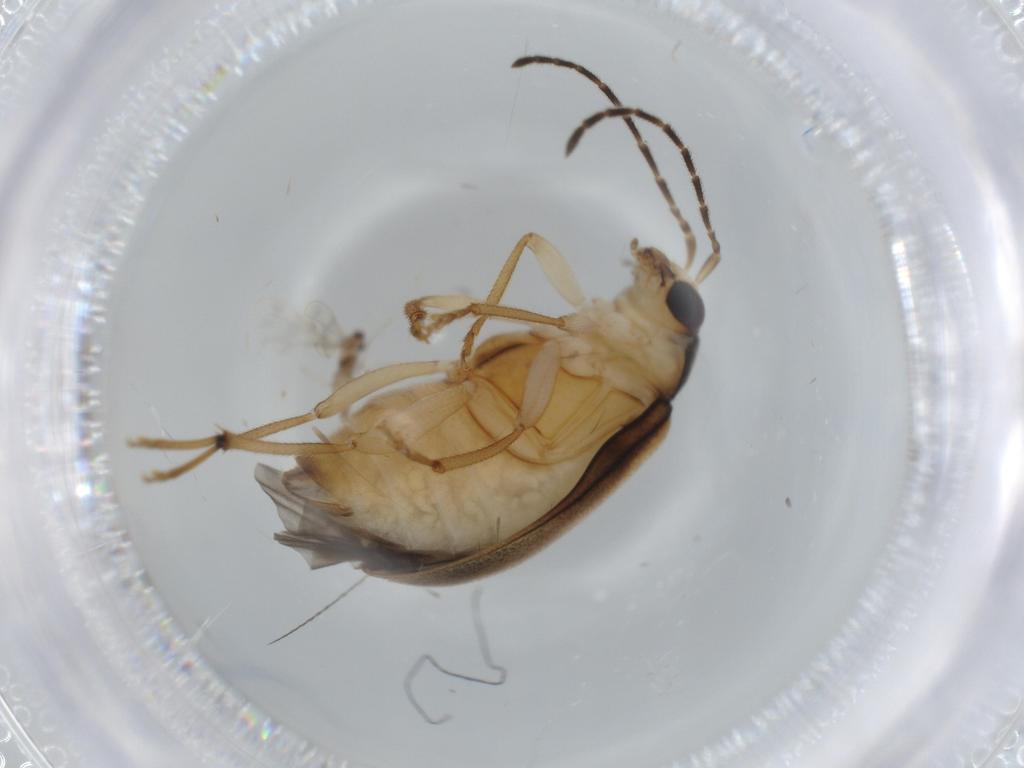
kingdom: Animalia
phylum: Arthropoda
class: Insecta
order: Coleoptera
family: Chrysomelidae
